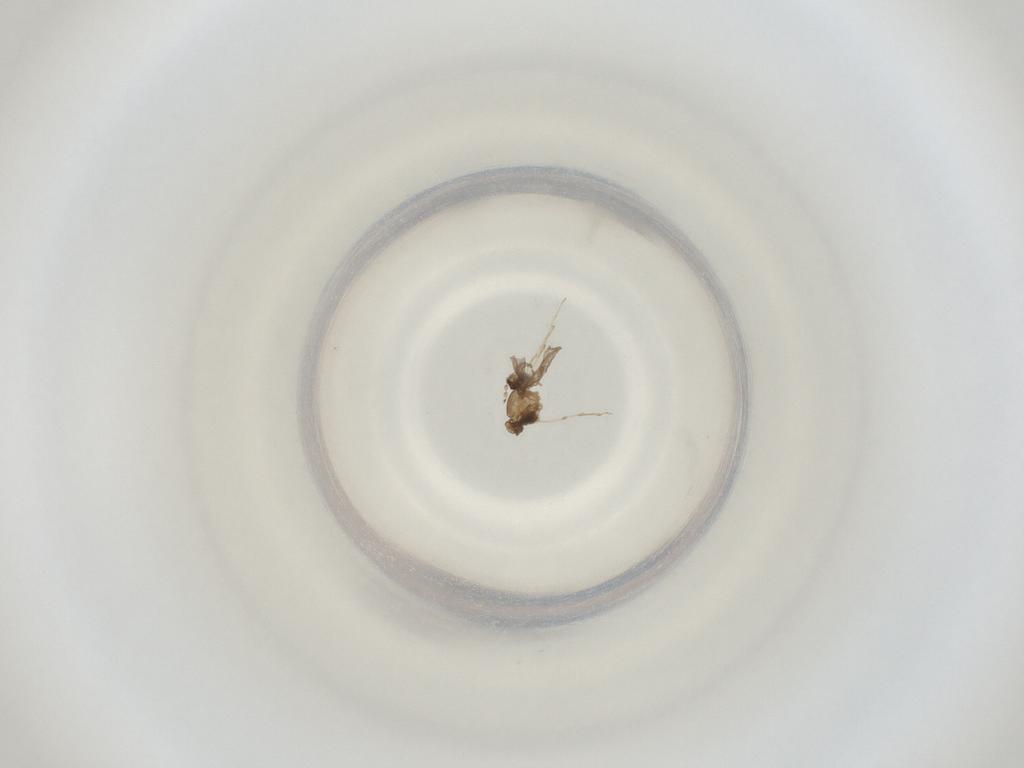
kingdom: Animalia
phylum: Arthropoda
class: Insecta
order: Diptera
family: Cecidomyiidae
